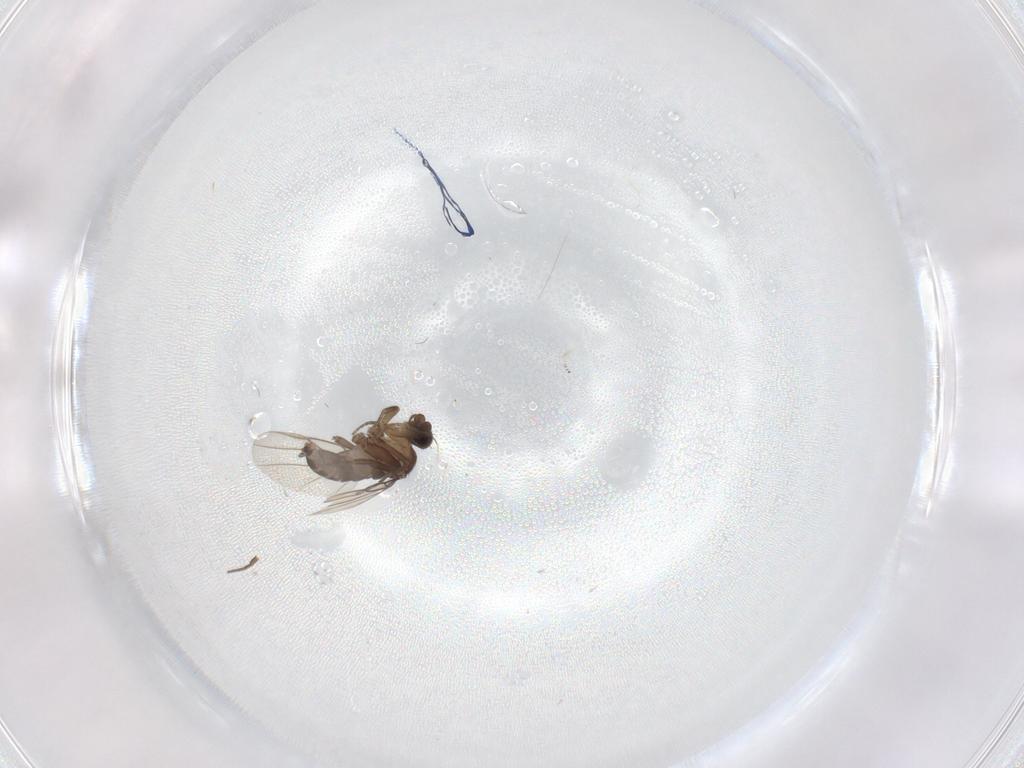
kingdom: Animalia
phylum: Arthropoda
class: Insecta
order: Diptera
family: Phoridae
